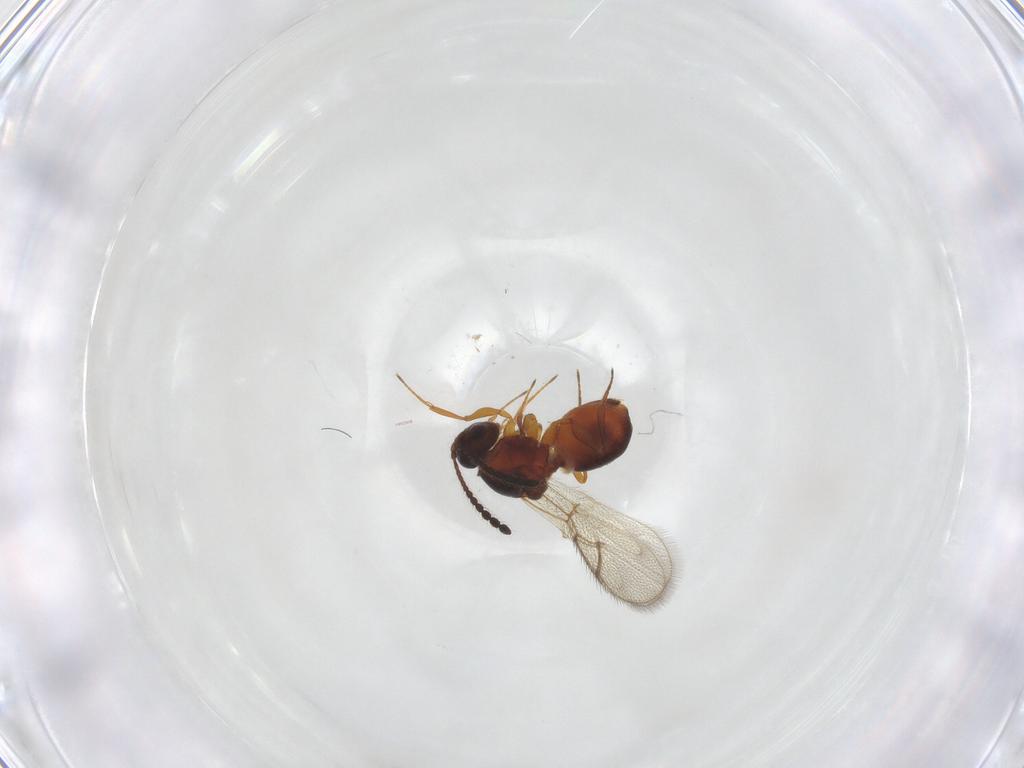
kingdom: Animalia
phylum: Arthropoda
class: Insecta
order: Hymenoptera
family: Figitidae
